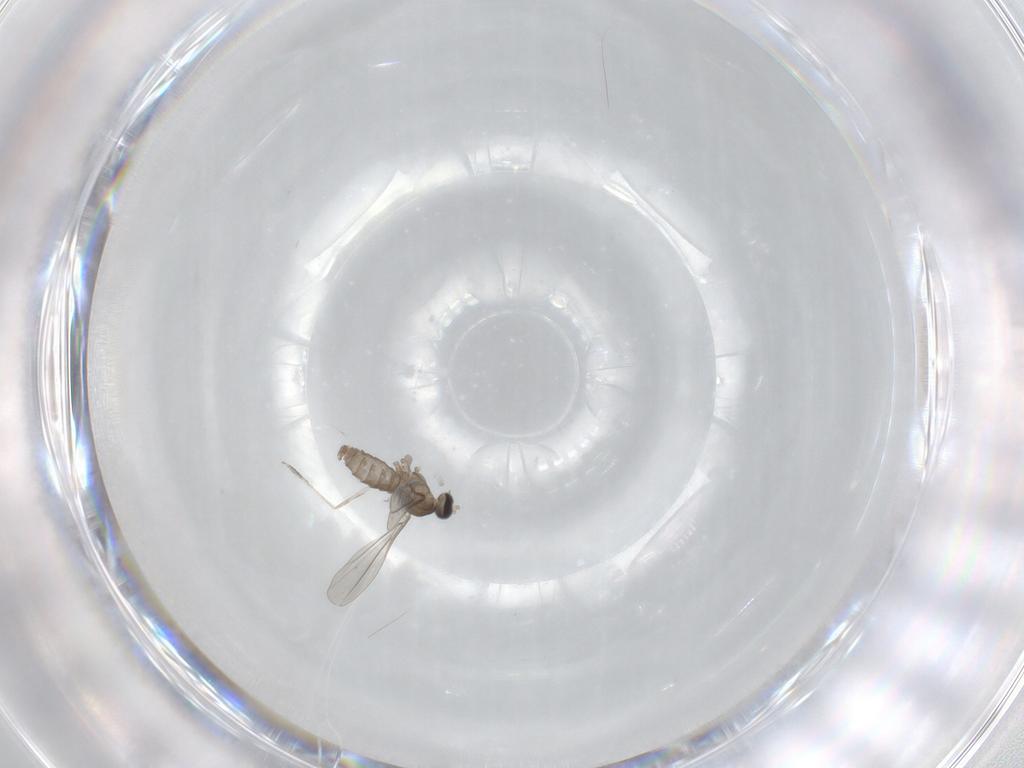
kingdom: Animalia
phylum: Arthropoda
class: Insecta
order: Diptera
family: Cecidomyiidae
